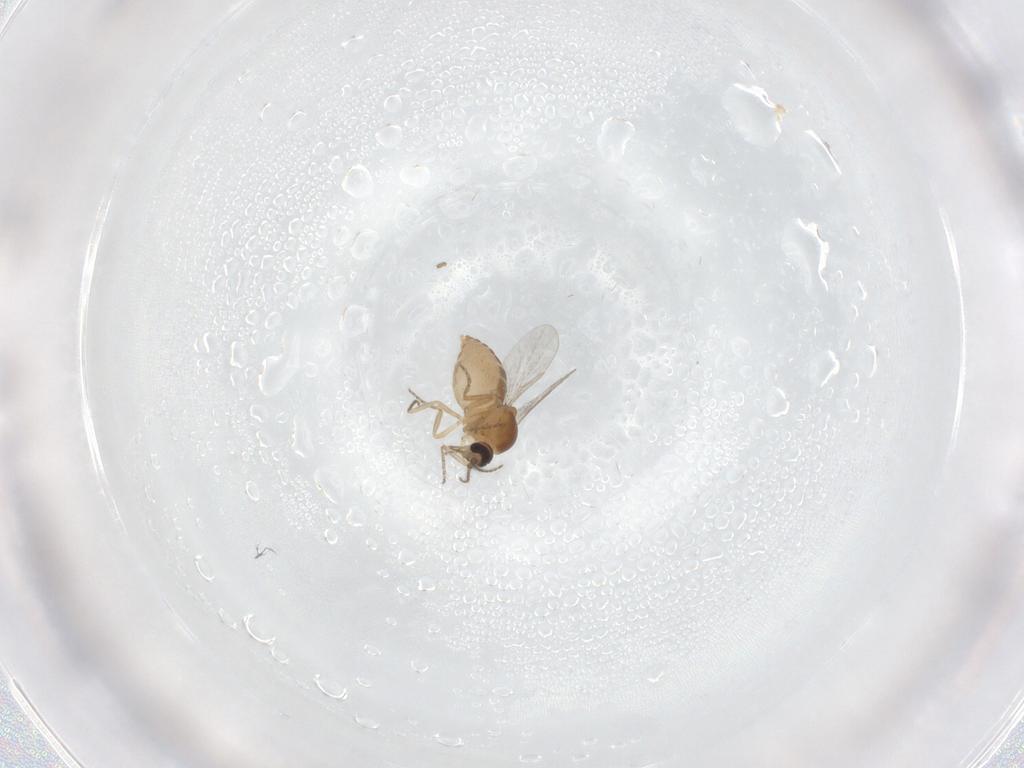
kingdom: Animalia
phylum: Arthropoda
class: Insecta
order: Diptera
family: Ceratopogonidae
